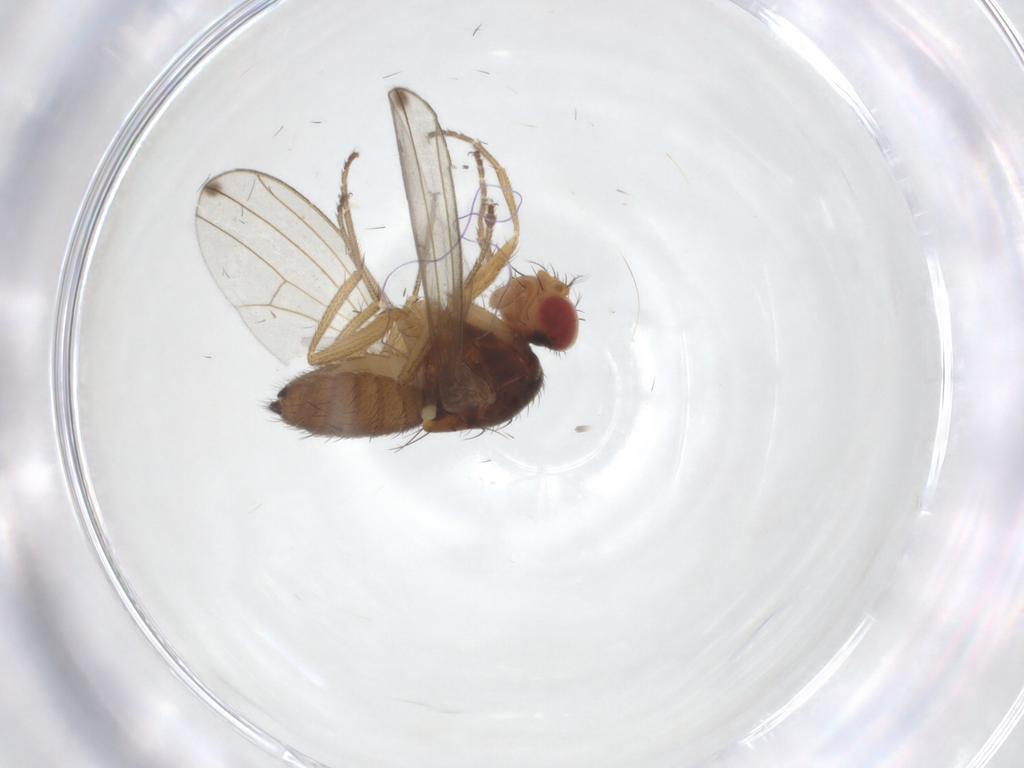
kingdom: Animalia
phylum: Arthropoda
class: Insecta
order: Diptera
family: Drosophilidae
